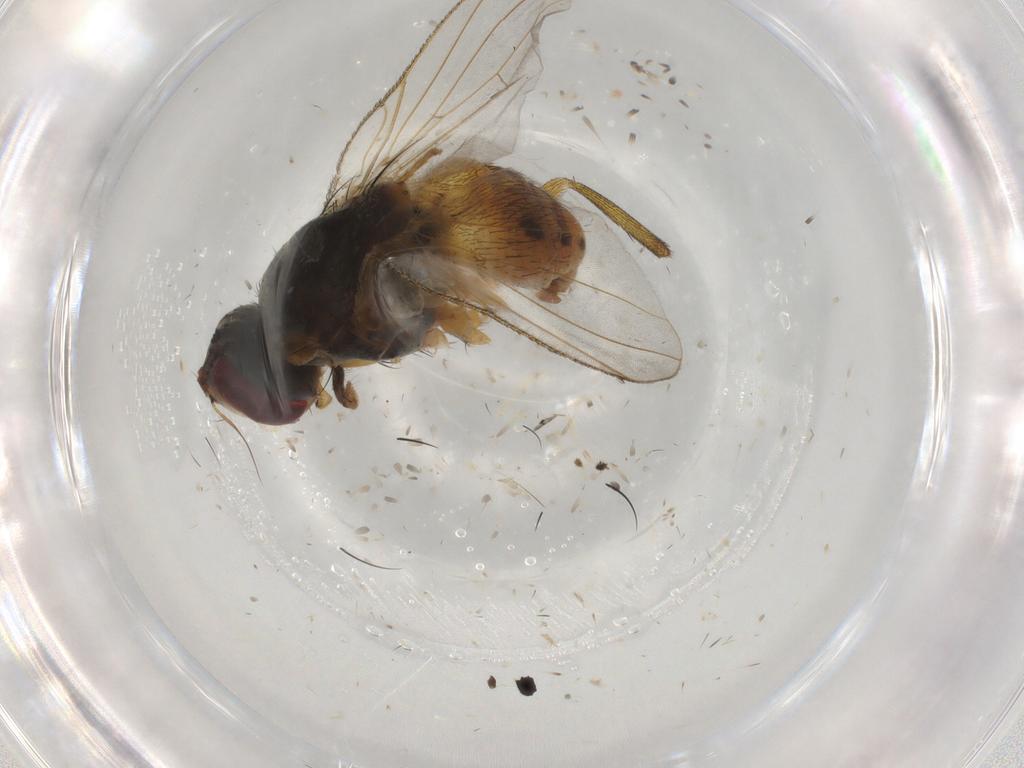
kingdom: Animalia
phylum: Arthropoda
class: Insecta
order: Diptera
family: Muscidae
